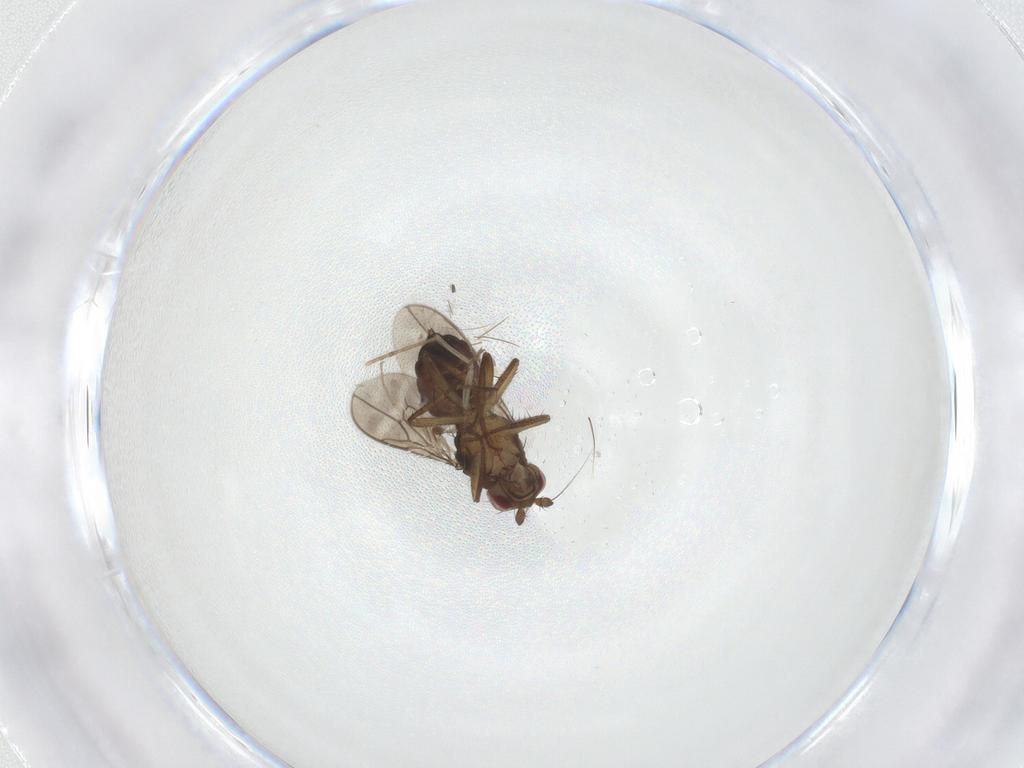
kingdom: Animalia
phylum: Arthropoda
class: Insecta
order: Diptera
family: Sphaeroceridae
